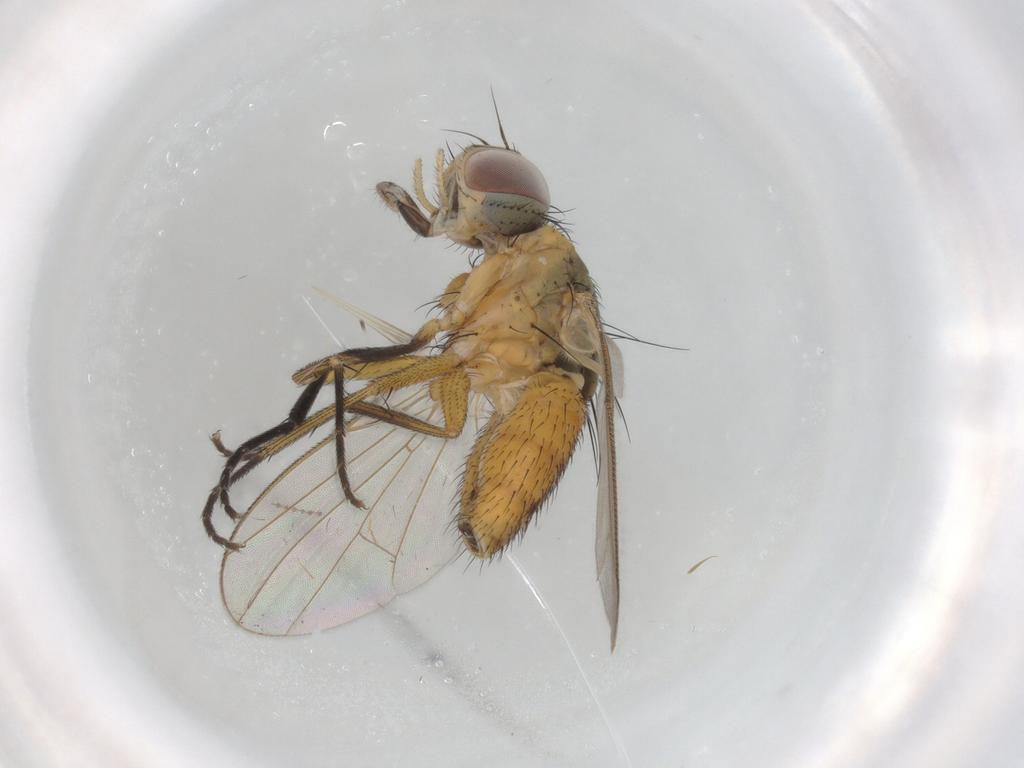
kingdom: Animalia
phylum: Arthropoda
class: Insecta
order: Diptera
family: Muscidae
